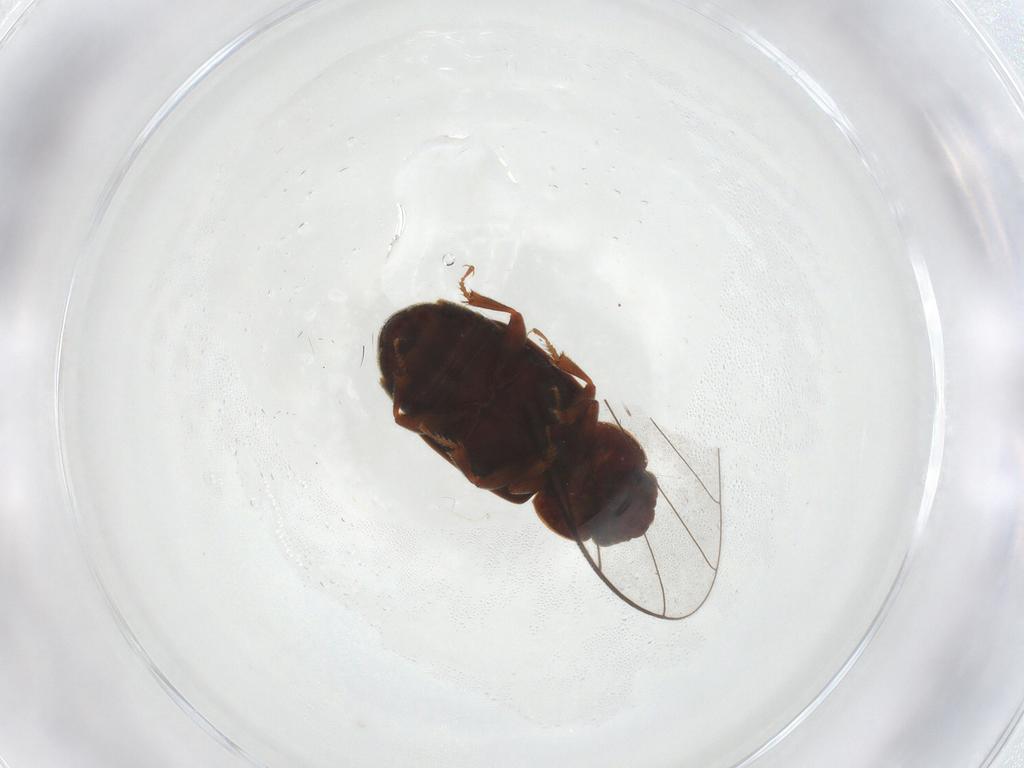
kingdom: Animalia
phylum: Arthropoda
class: Insecta
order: Coleoptera
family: Nitidulidae
